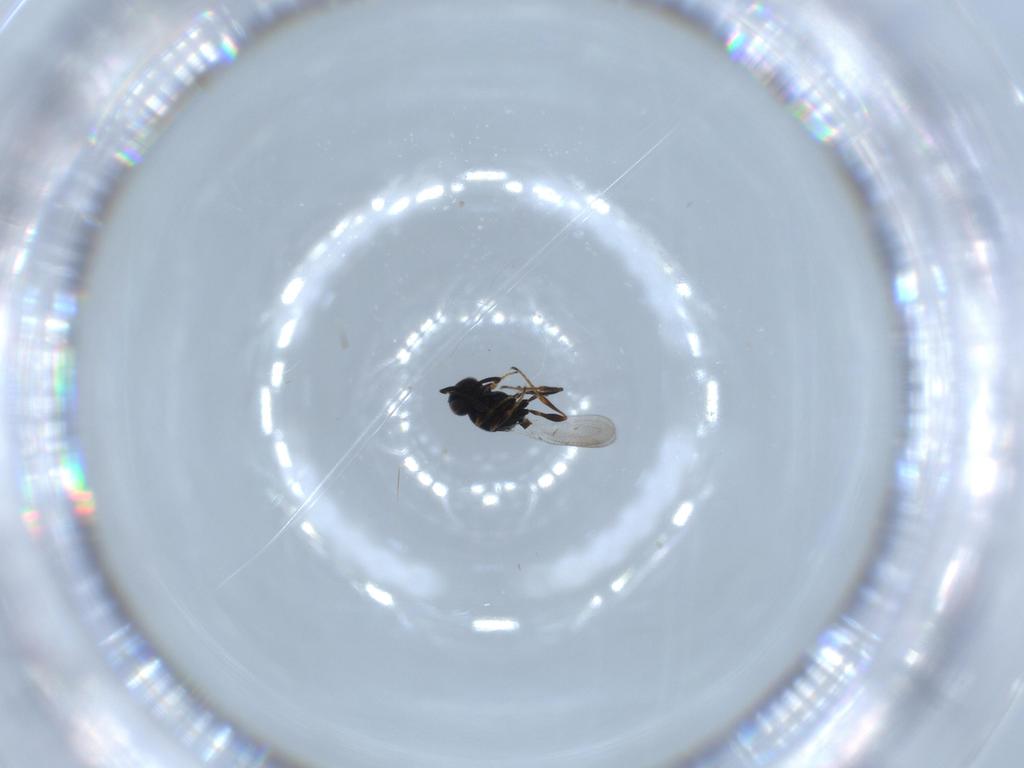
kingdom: Animalia
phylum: Arthropoda
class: Insecta
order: Hymenoptera
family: Platygastridae
